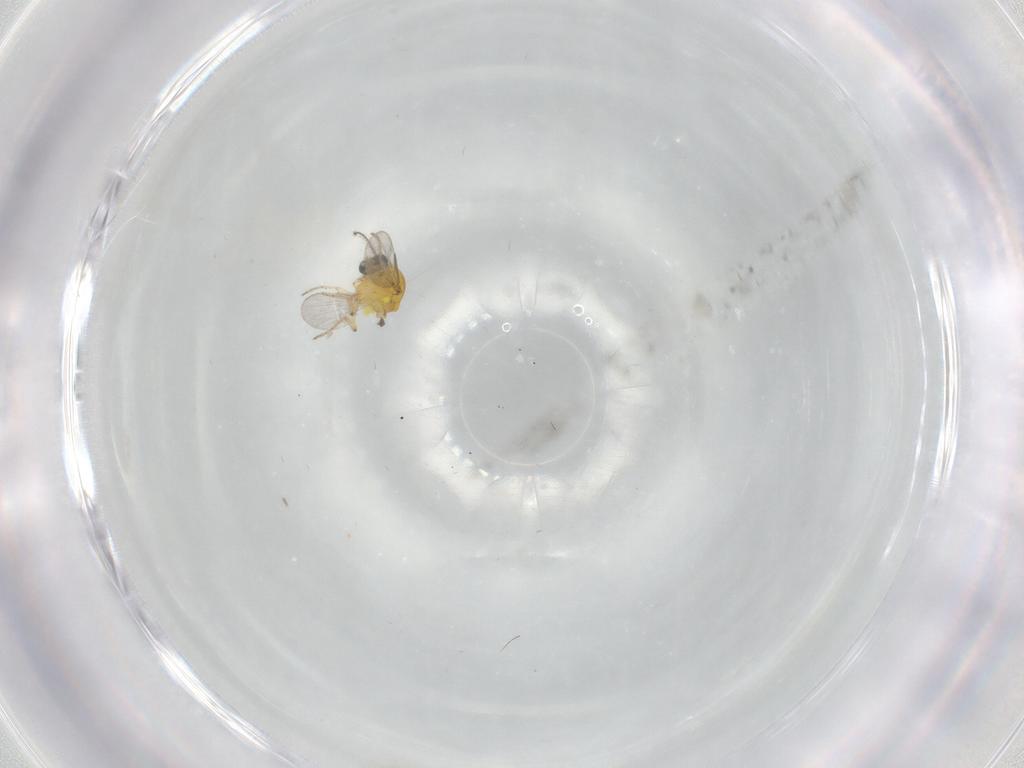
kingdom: Animalia
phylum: Arthropoda
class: Insecta
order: Diptera
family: Ceratopogonidae
